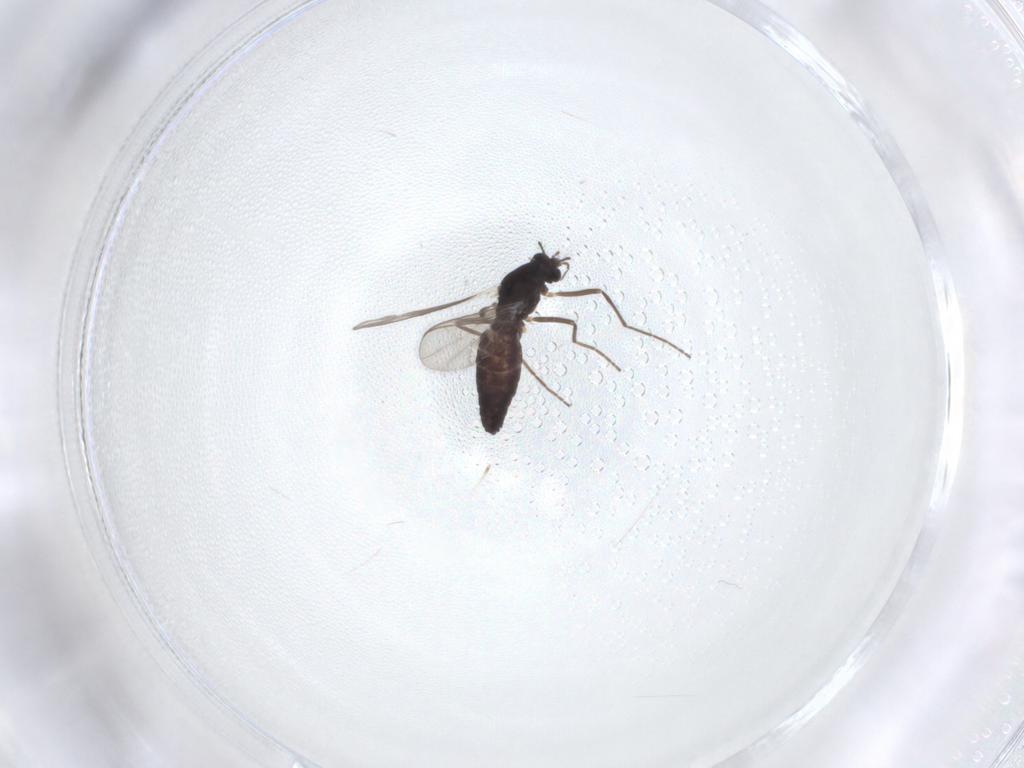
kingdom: Animalia
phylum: Arthropoda
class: Insecta
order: Diptera
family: Chironomidae
